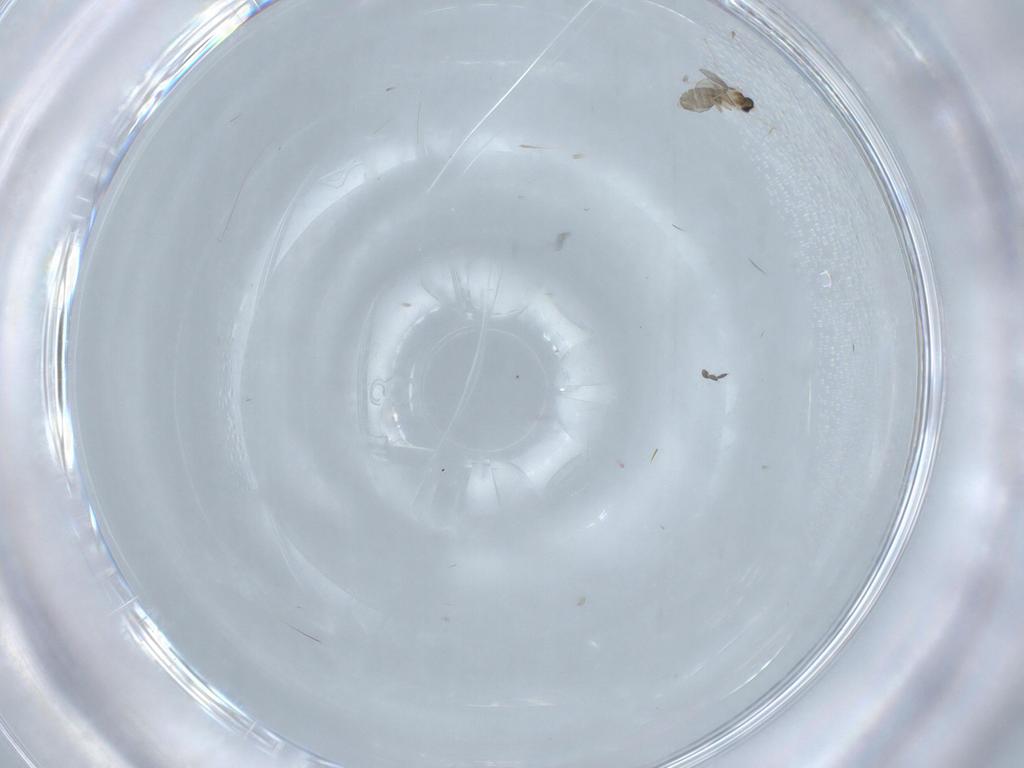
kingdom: Animalia
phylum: Arthropoda
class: Insecta
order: Diptera
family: Cecidomyiidae
